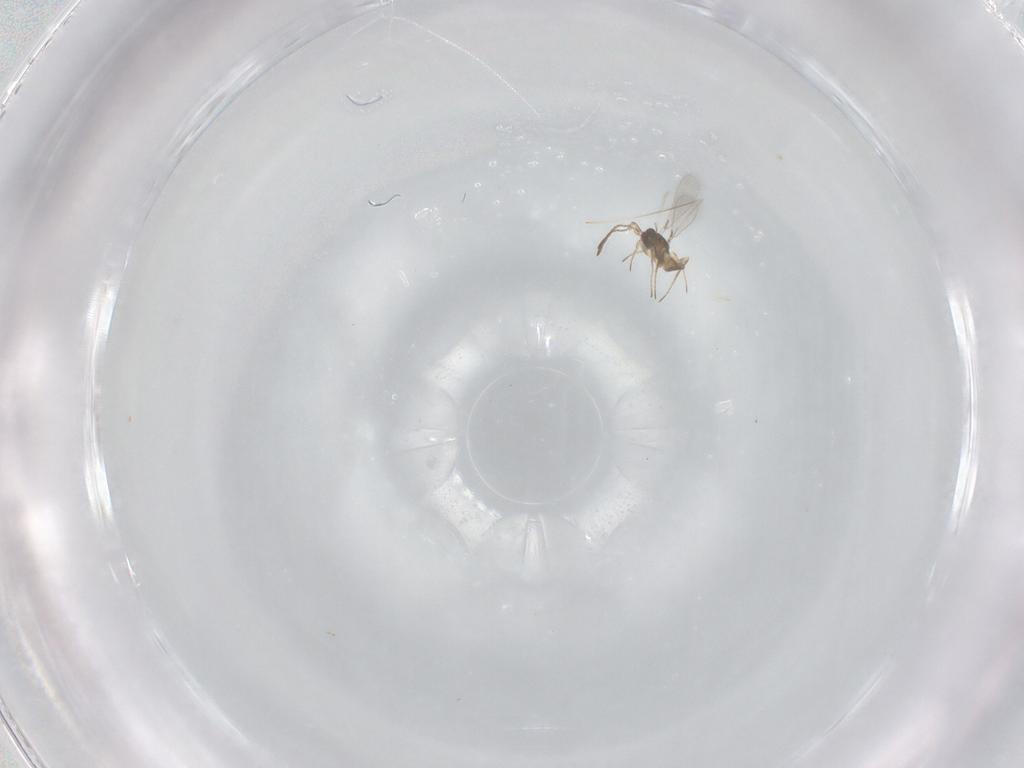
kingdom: Animalia
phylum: Arthropoda
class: Insecta
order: Hymenoptera
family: Mymaridae
